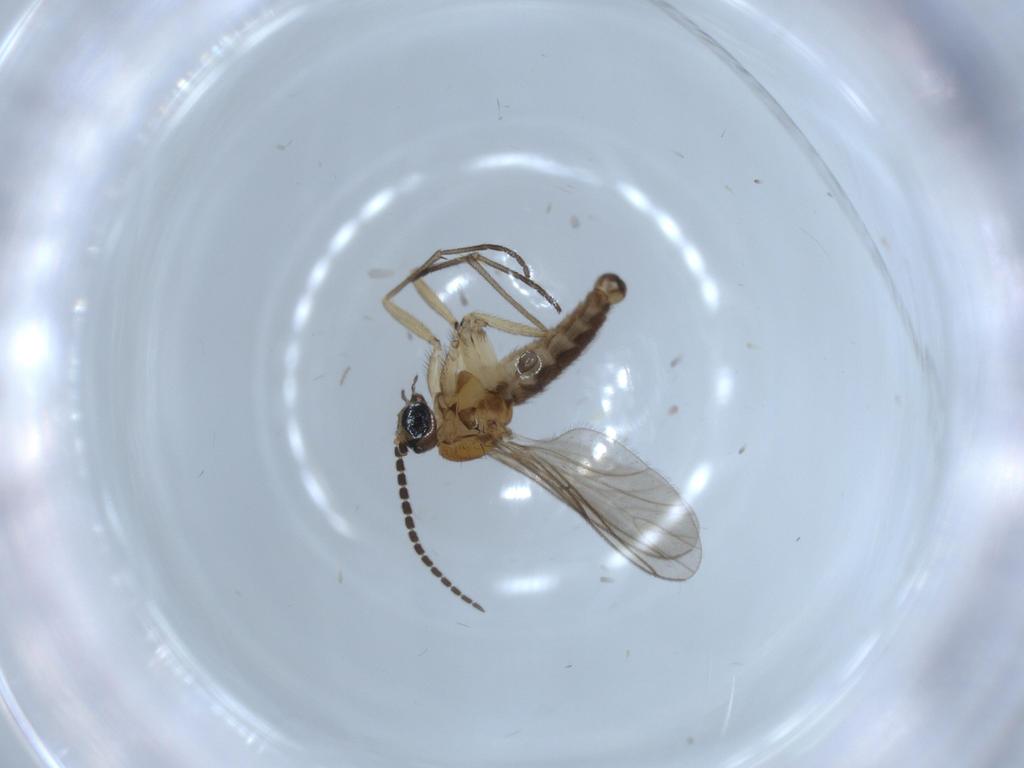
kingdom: Animalia
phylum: Arthropoda
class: Insecta
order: Diptera
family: Sciaridae
